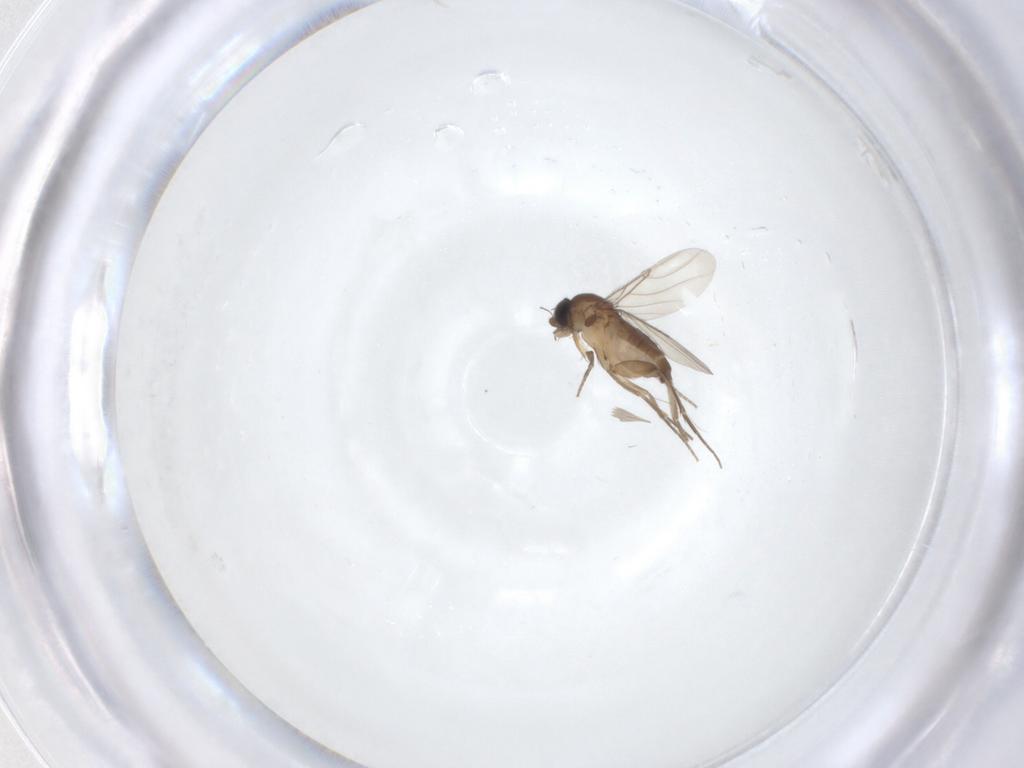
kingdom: Animalia
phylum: Arthropoda
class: Insecta
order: Diptera
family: Phoridae
